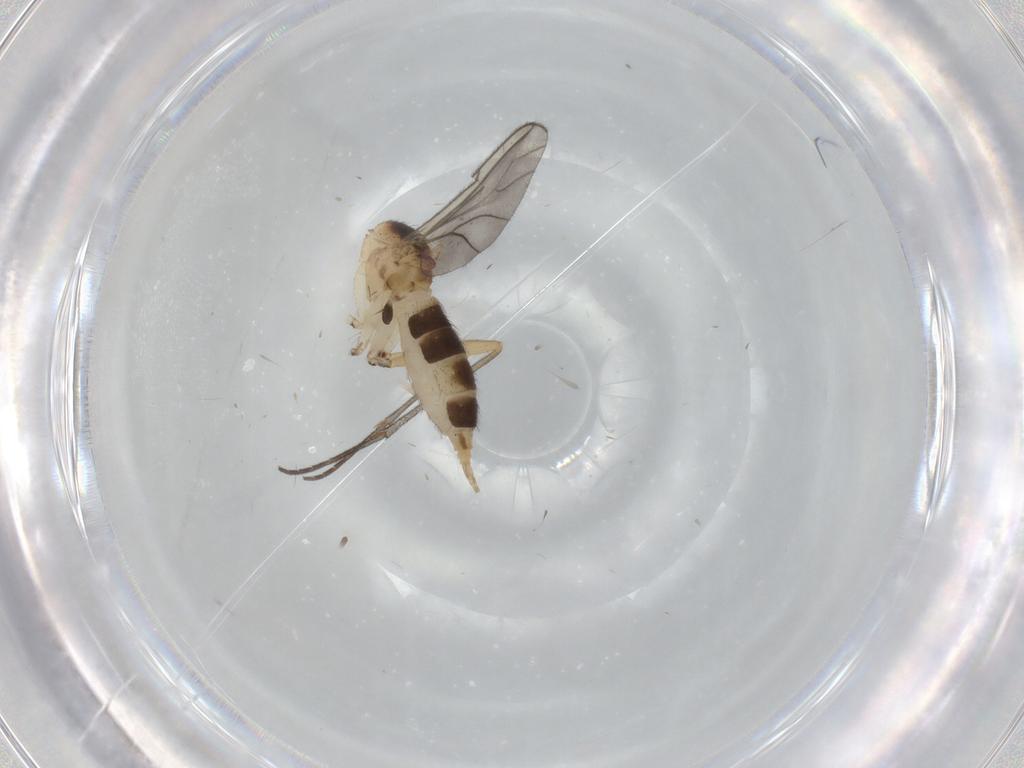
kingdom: Animalia
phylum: Arthropoda
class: Insecta
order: Diptera
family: Sciaridae
